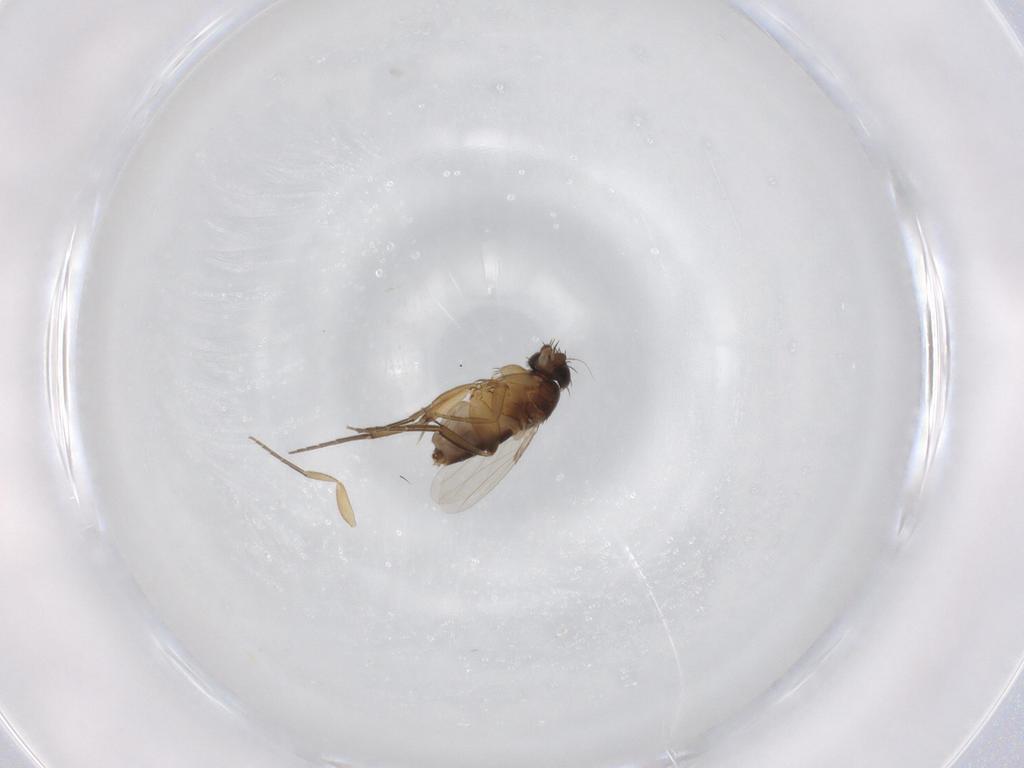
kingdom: Animalia
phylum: Arthropoda
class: Insecta
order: Diptera
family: Phoridae
